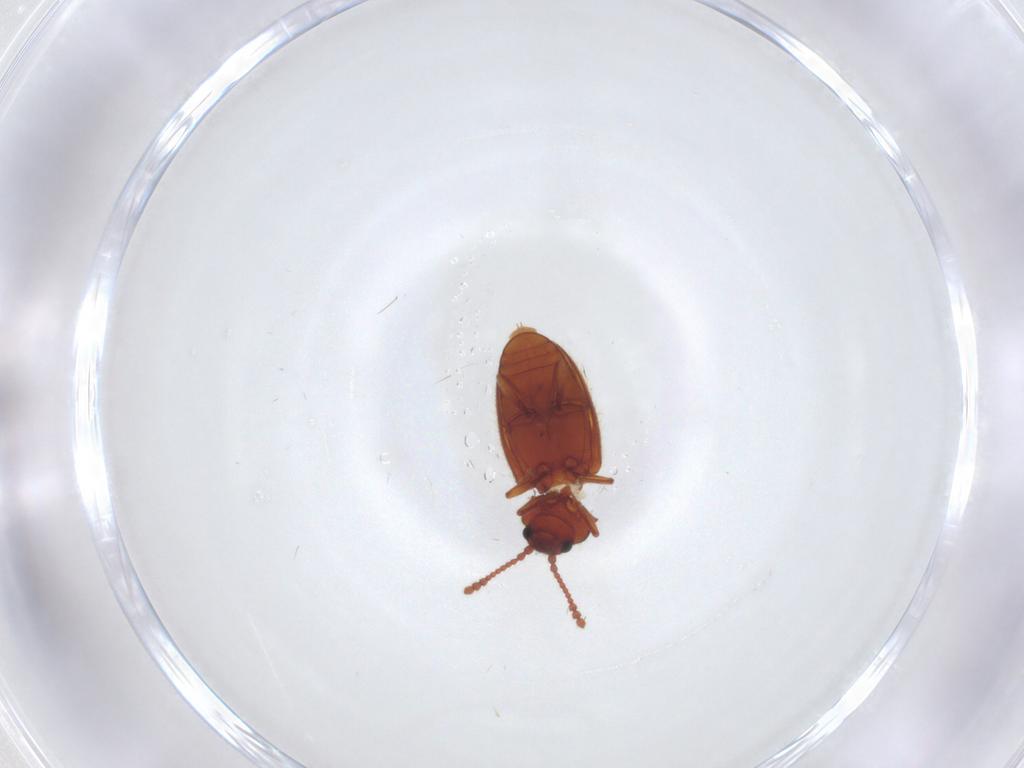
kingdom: Animalia
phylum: Arthropoda
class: Insecta
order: Coleoptera
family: Cryptophagidae
